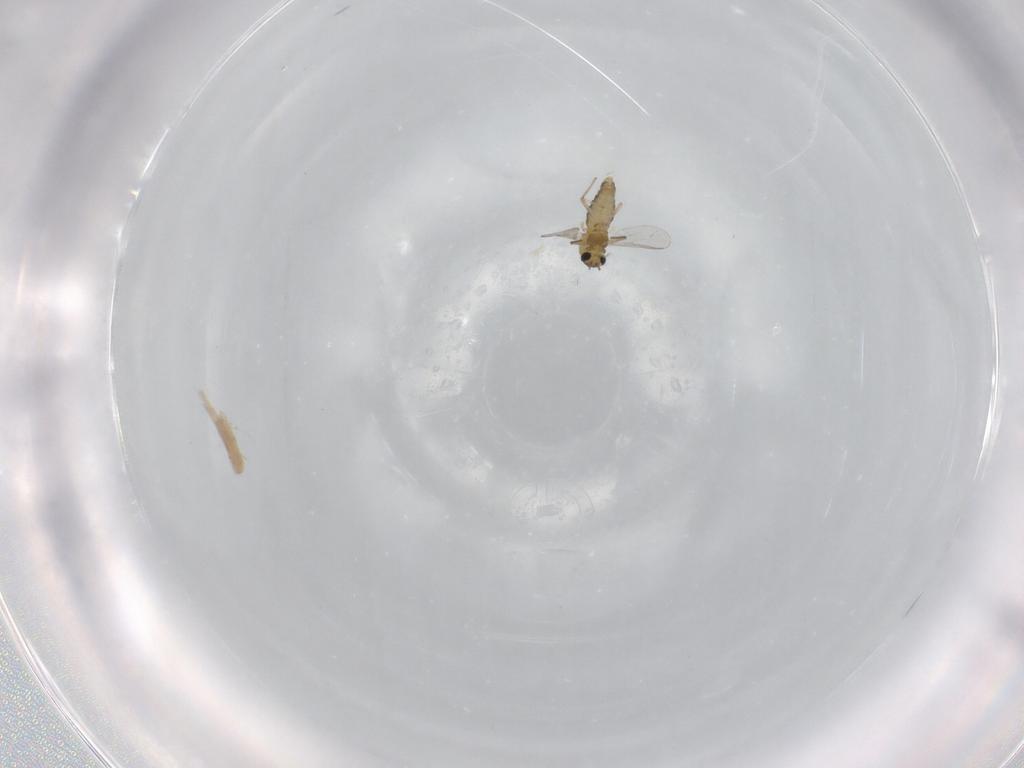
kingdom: Animalia
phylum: Arthropoda
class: Insecta
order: Diptera
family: Chironomidae
